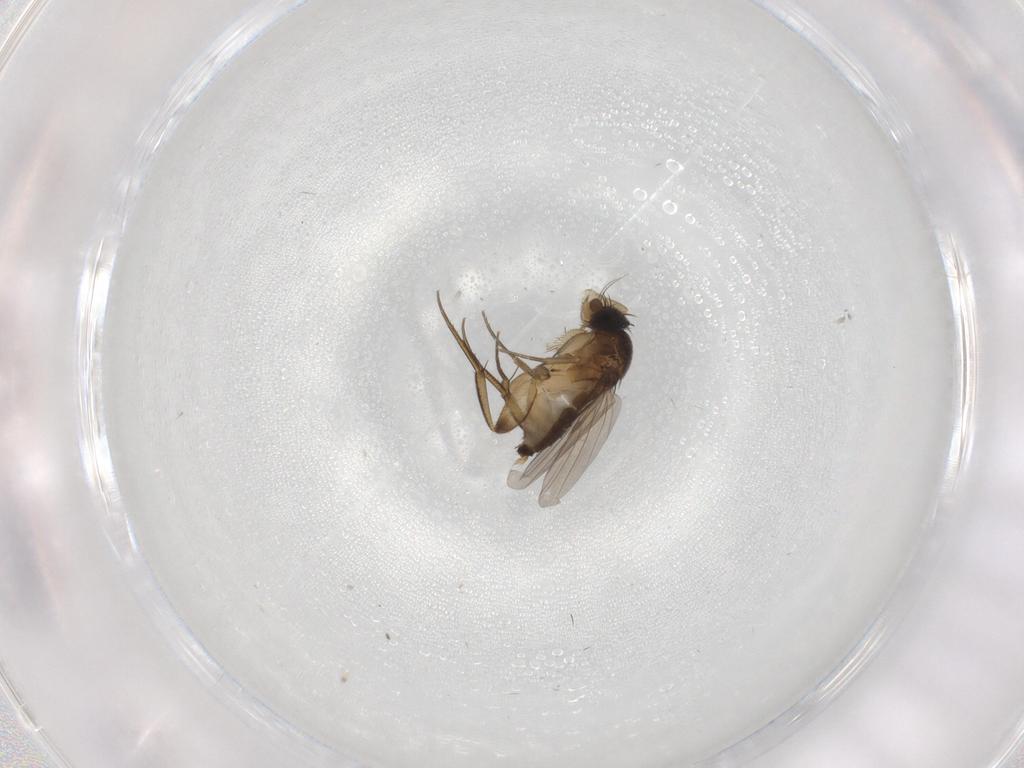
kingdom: Animalia
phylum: Arthropoda
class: Insecta
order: Diptera
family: Phoridae
